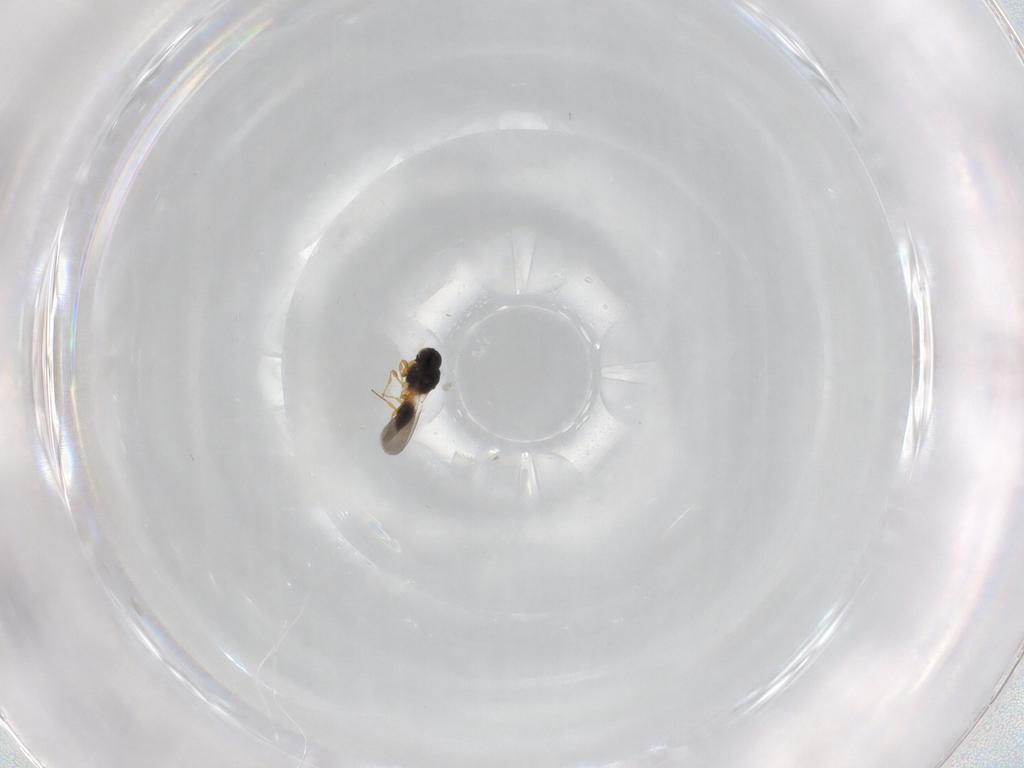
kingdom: Animalia
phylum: Arthropoda
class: Insecta
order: Hymenoptera
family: Platygastridae
